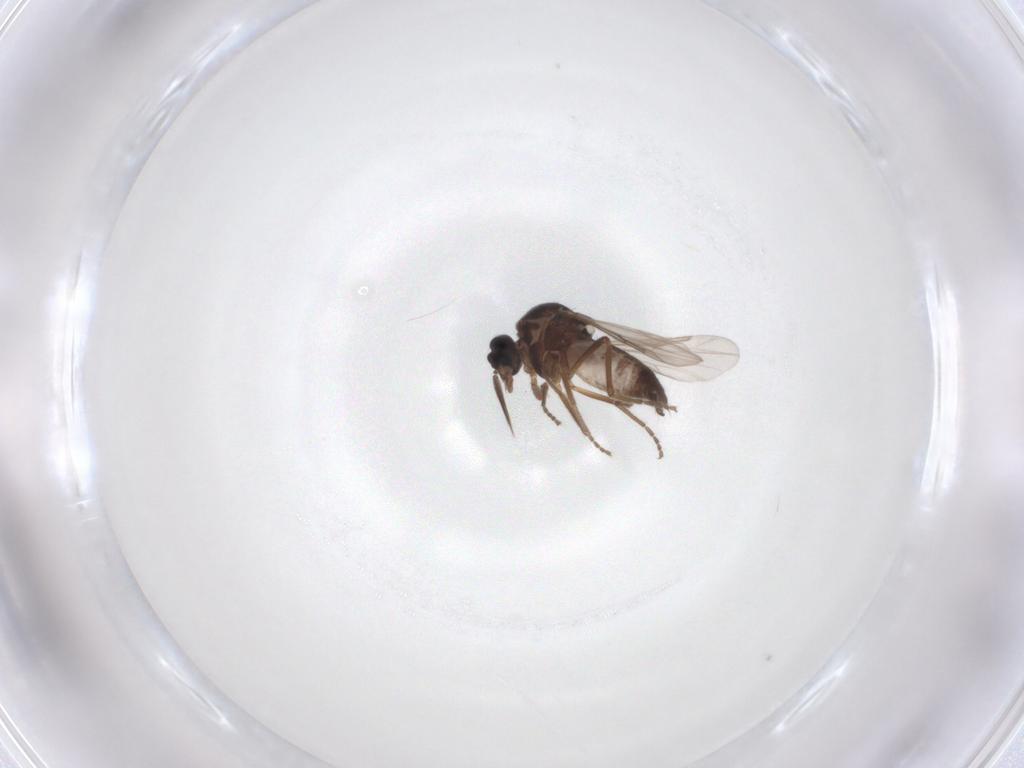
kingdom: Animalia
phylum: Arthropoda
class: Insecta
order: Diptera
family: Ceratopogonidae
